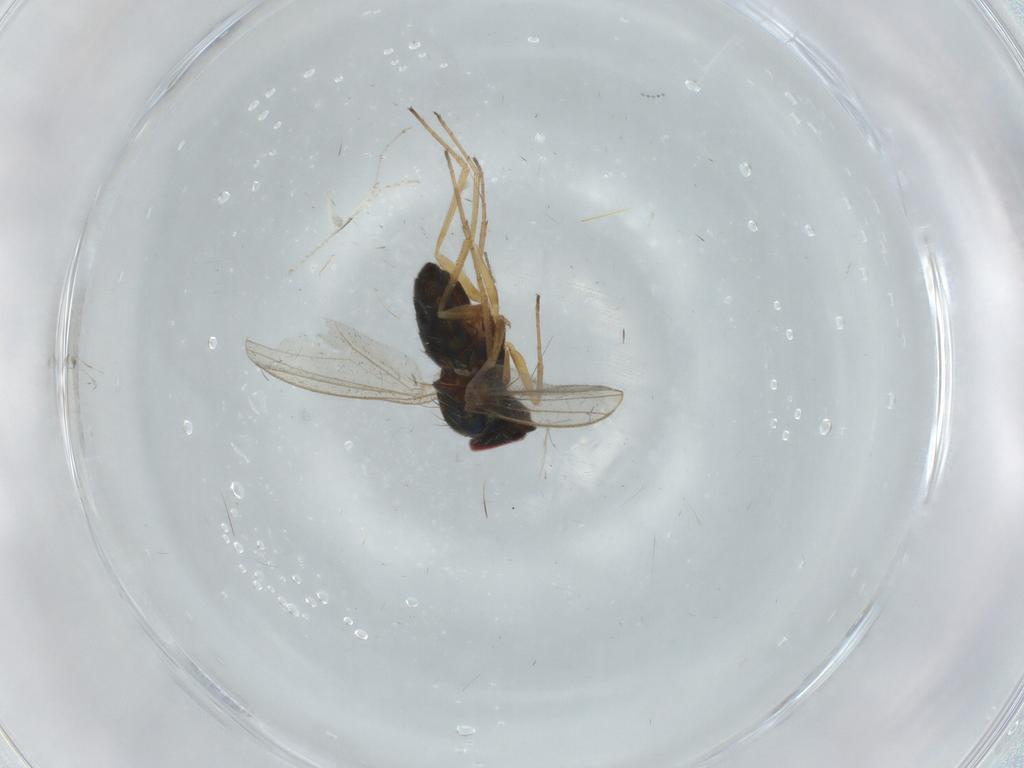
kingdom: Animalia
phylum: Arthropoda
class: Insecta
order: Diptera
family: Dolichopodidae
